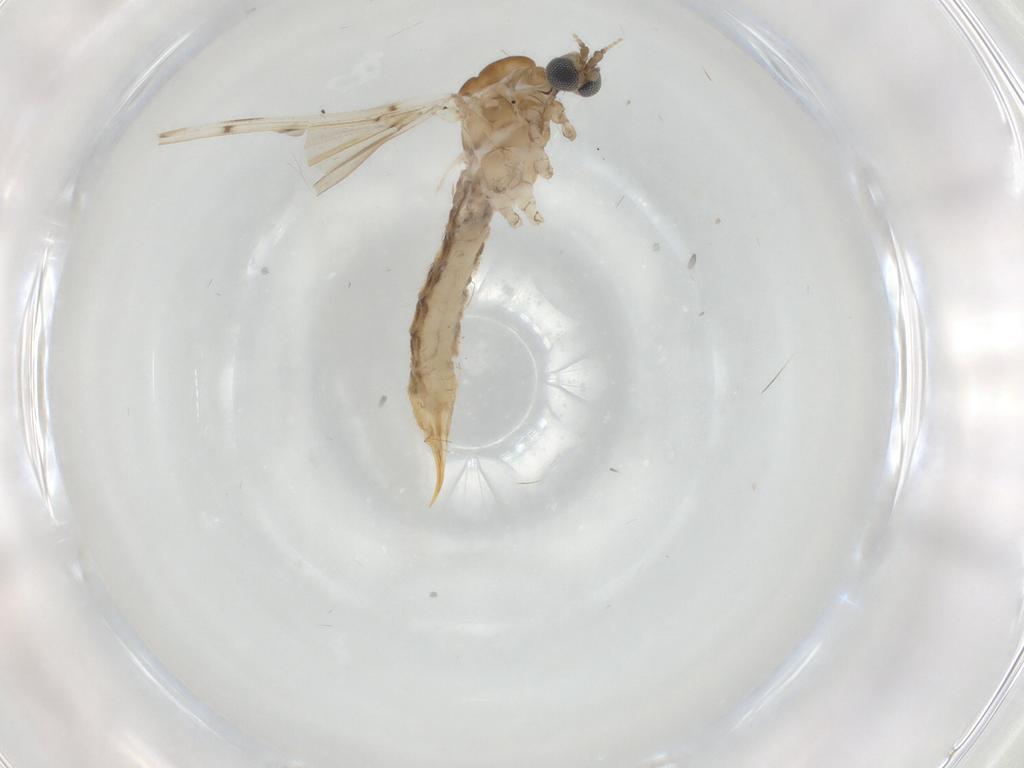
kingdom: Animalia
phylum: Arthropoda
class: Insecta
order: Diptera
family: Limoniidae
